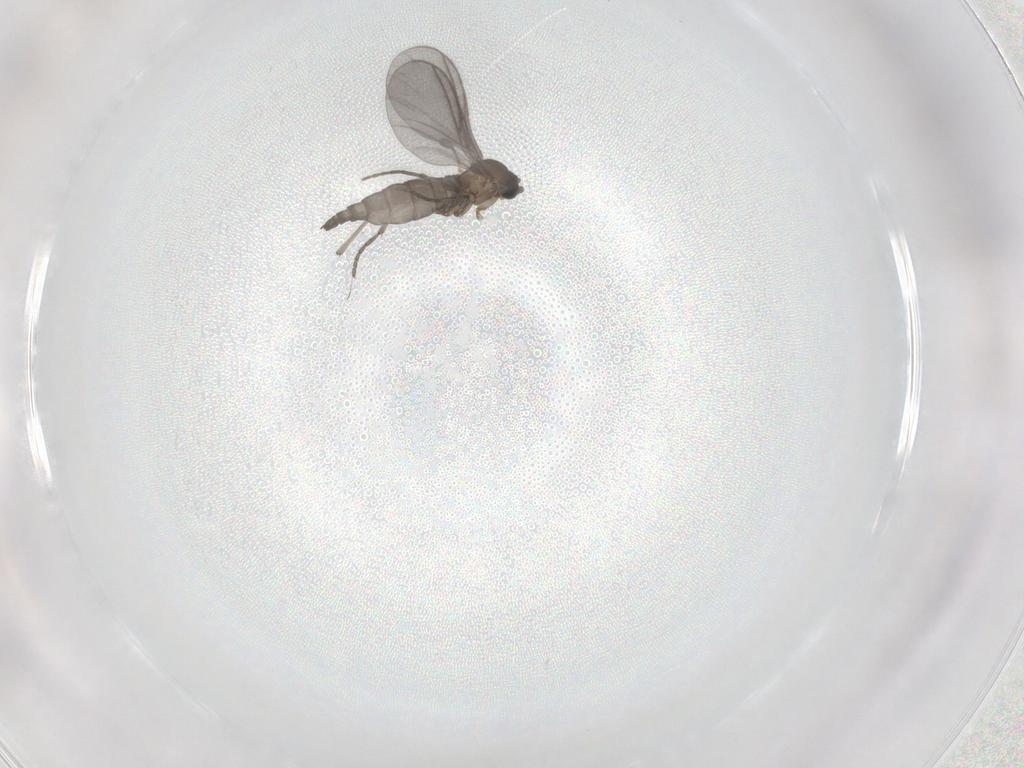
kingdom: Animalia
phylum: Arthropoda
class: Insecta
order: Diptera
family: Sciaridae
